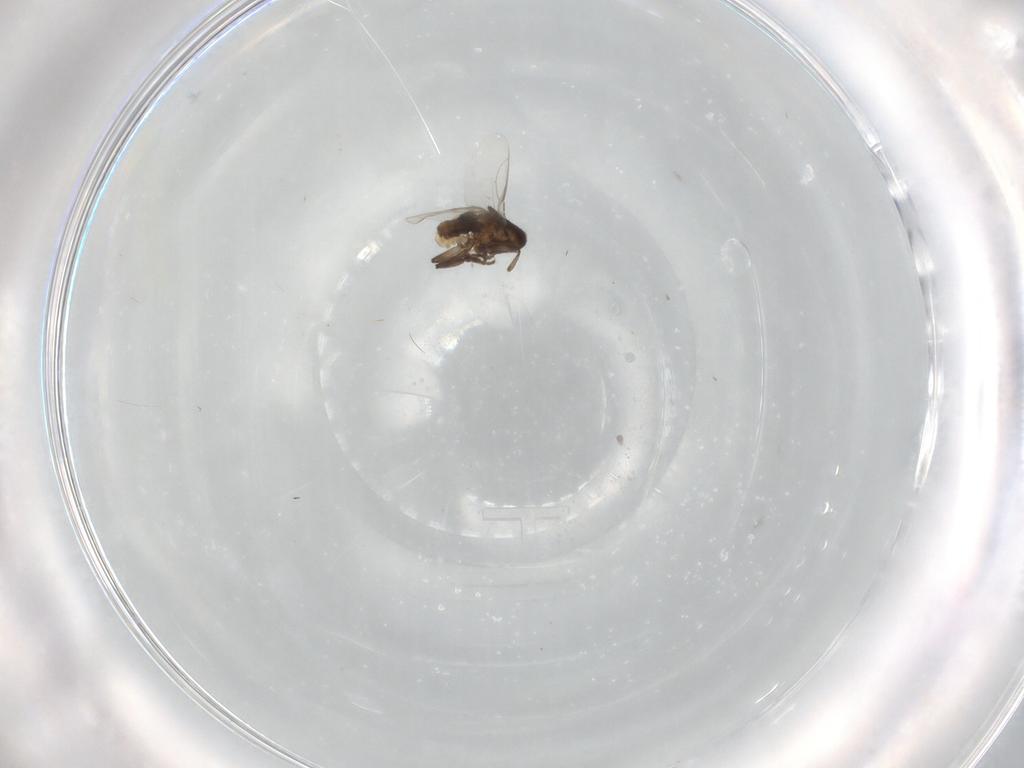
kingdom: Animalia
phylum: Arthropoda
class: Insecta
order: Diptera
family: Sphaeroceridae
